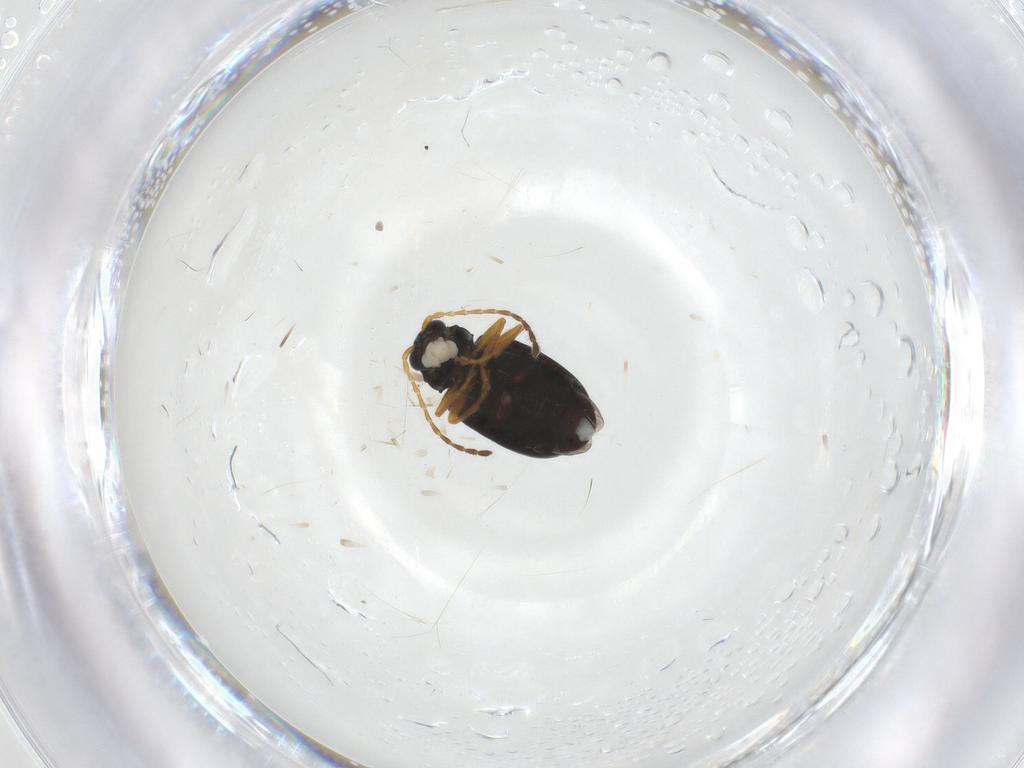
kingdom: Animalia
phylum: Arthropoda
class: Insecta
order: Coleoptera
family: Chrysomelidae
